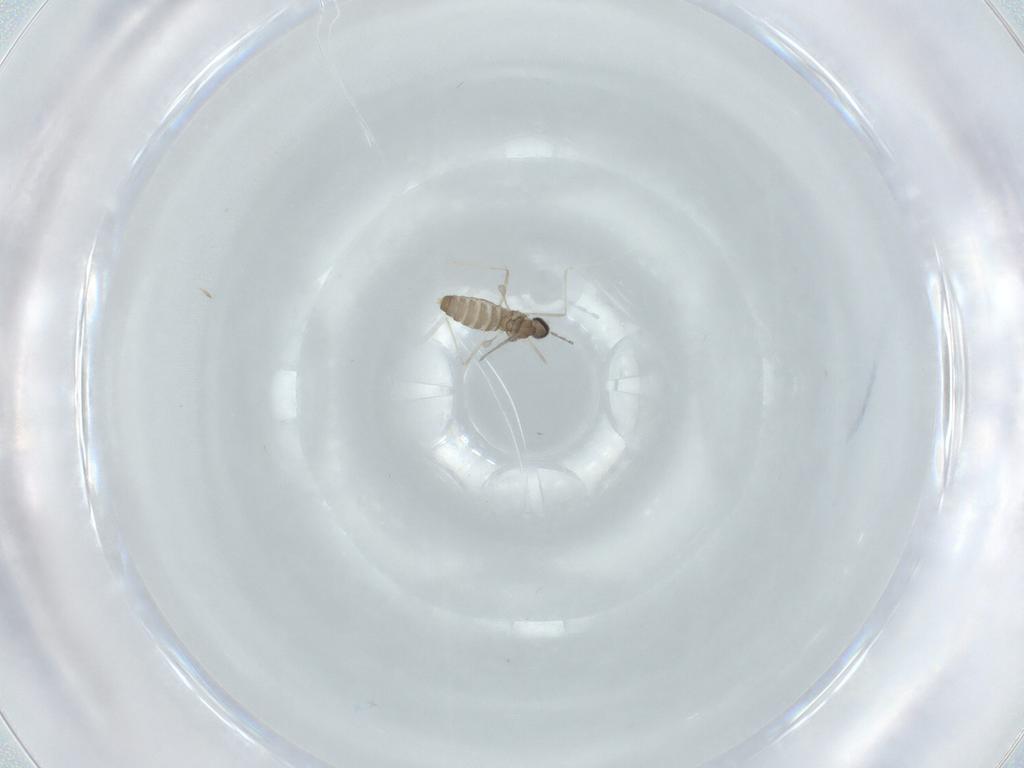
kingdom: Animalia
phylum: Arthropoda
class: Insecta
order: Diptera
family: Cecidomyiidae
